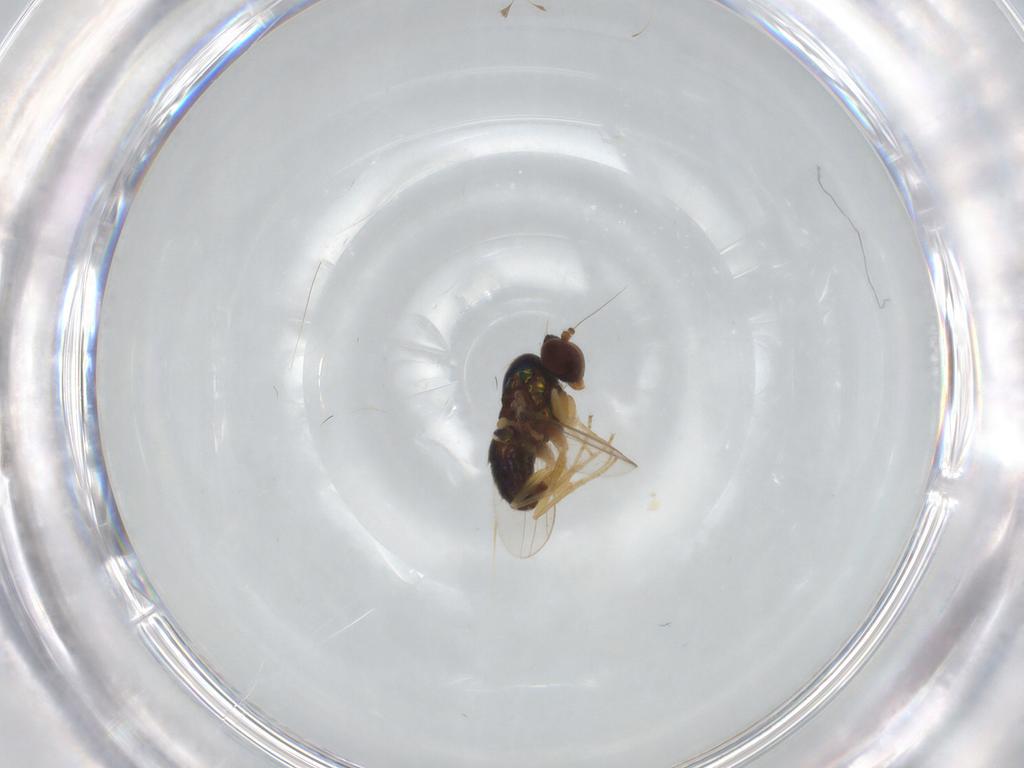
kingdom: Animalia
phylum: Arthropoda
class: Insecta
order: Diptera
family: Dolichopodidae
